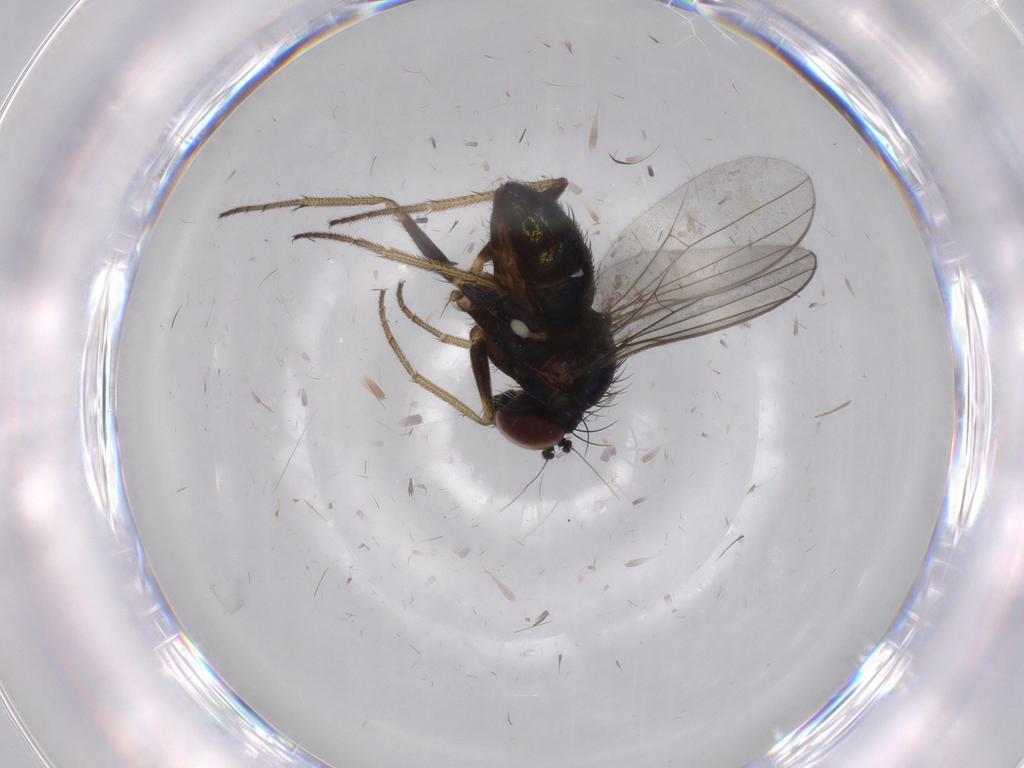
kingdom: Animalia
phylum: Arthropoda
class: Insecta
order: Diptera
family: Dolichopodidae
